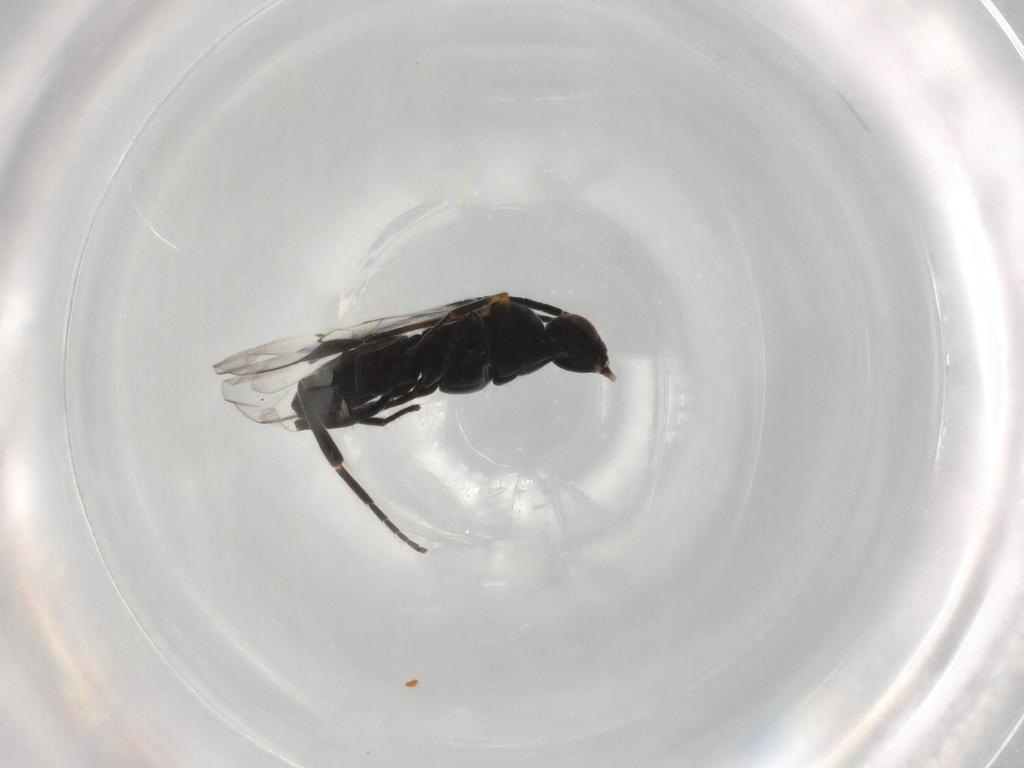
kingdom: Animalia
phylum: Arthropoda
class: Insecta
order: Hymenoptera
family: Braconidae
